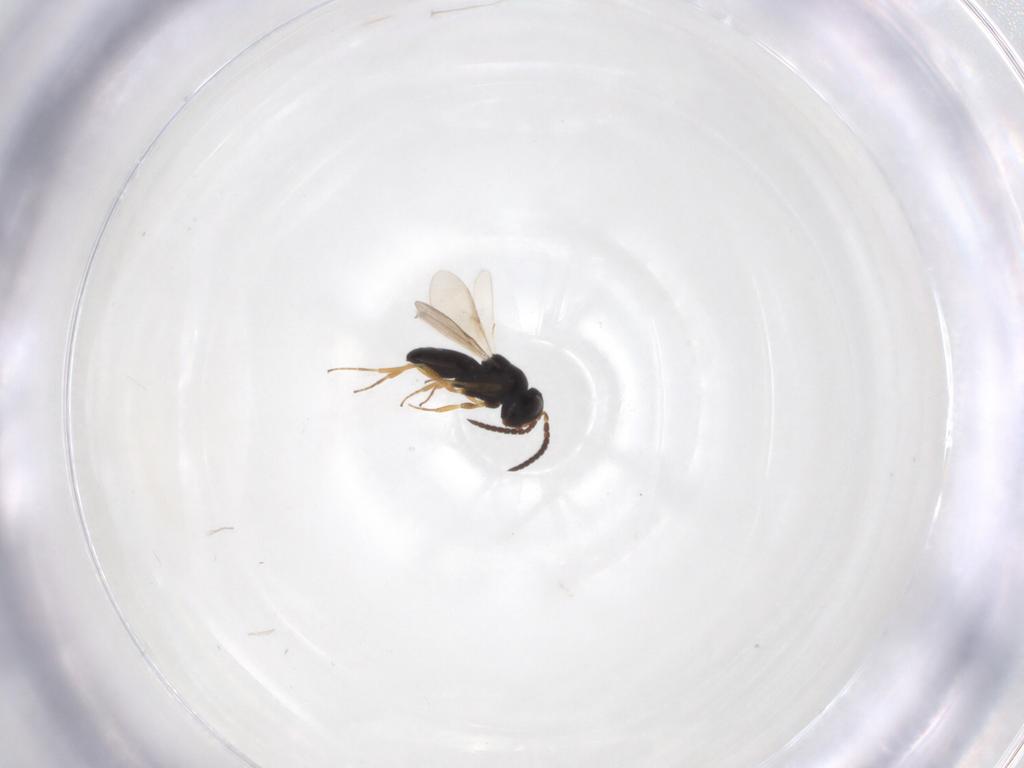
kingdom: Animalia
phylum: Arthropoda
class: Insecta
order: Hymenoptera
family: Scelionidae
